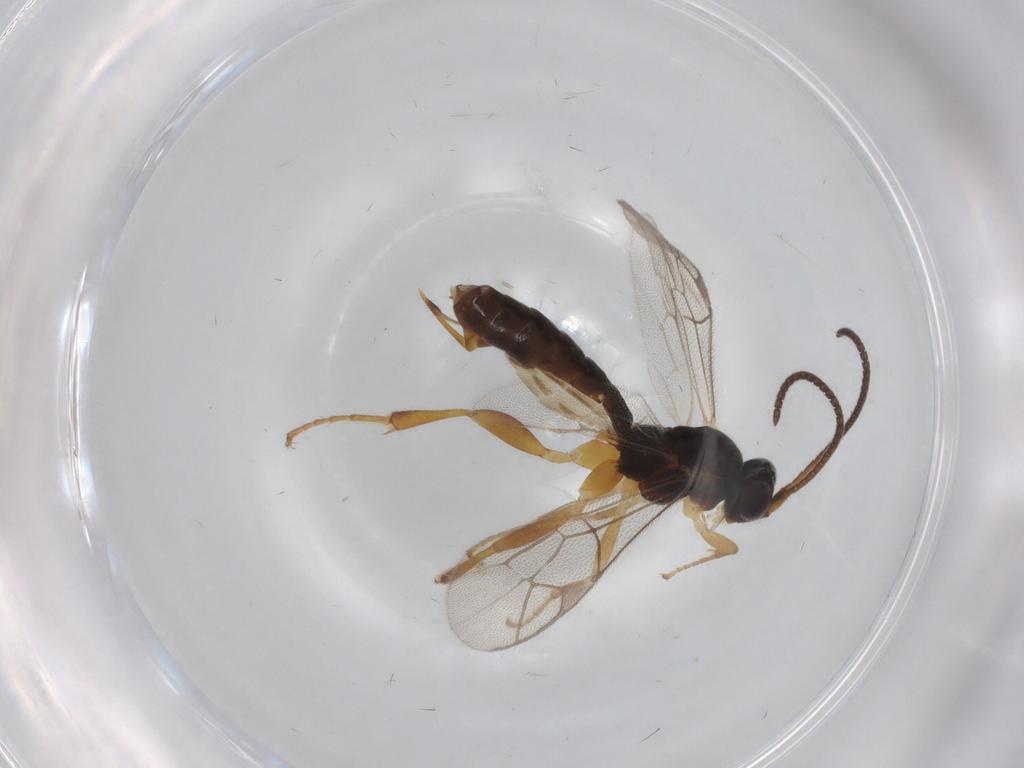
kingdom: Animalia
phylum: Arthropoda
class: Insecta
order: Hymenoptera
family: Ichneumonidae
